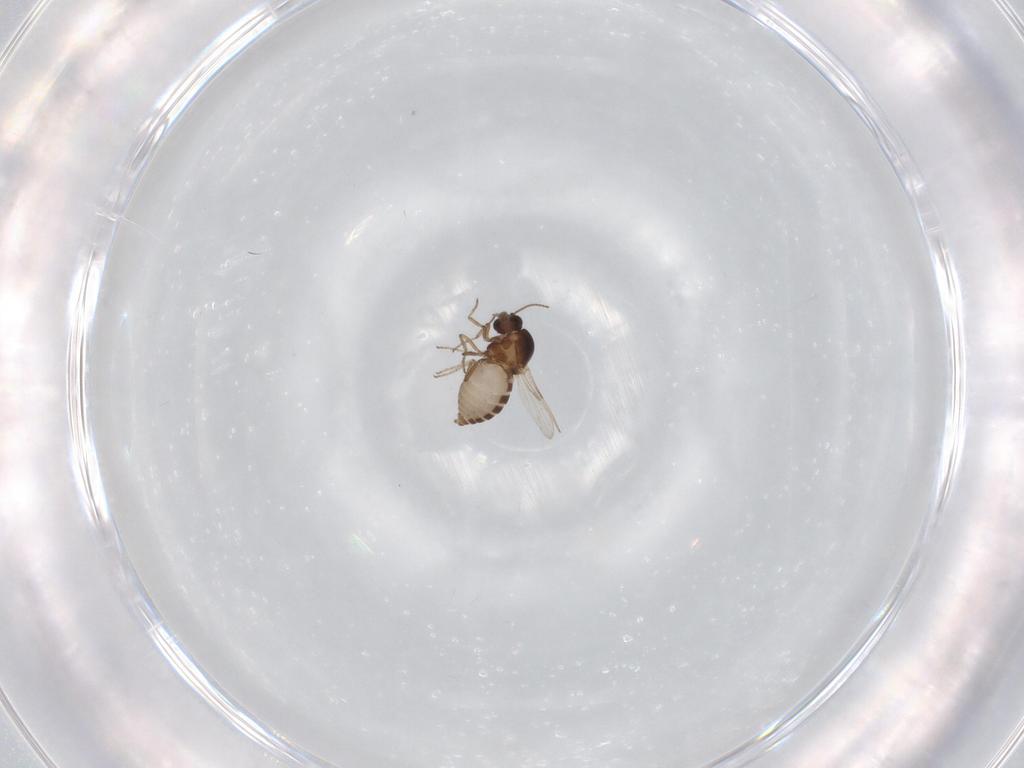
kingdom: Animalia
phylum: Arthropoda
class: Insecta
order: Diptera
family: Ceratopogonidae
